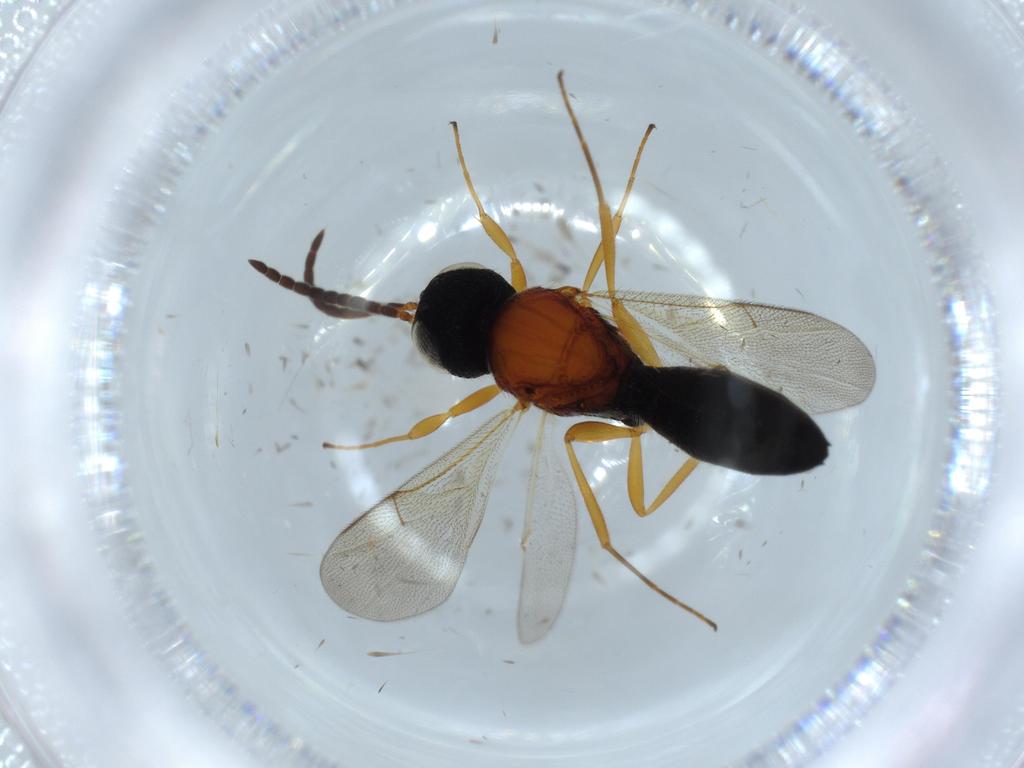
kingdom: Animalia
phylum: Arthropoda
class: Insecta
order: Hymenoptera
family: Scelionidae
